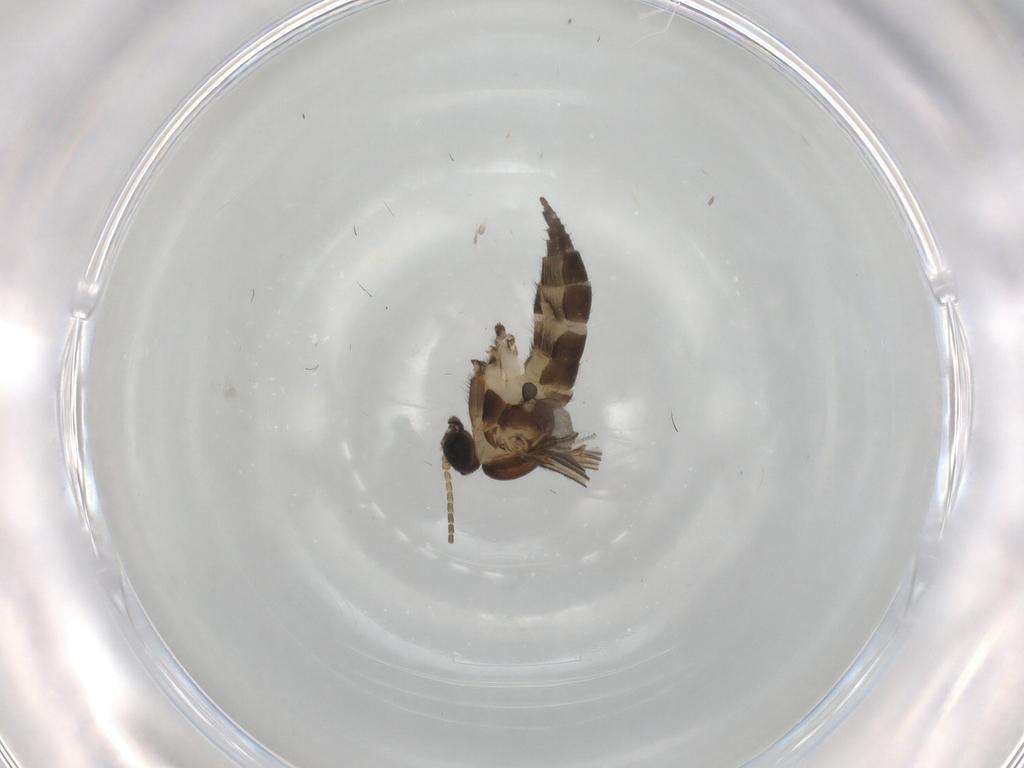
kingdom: Animalia
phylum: Arthropoda
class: Insecta
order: Diptera
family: Sciaridae
